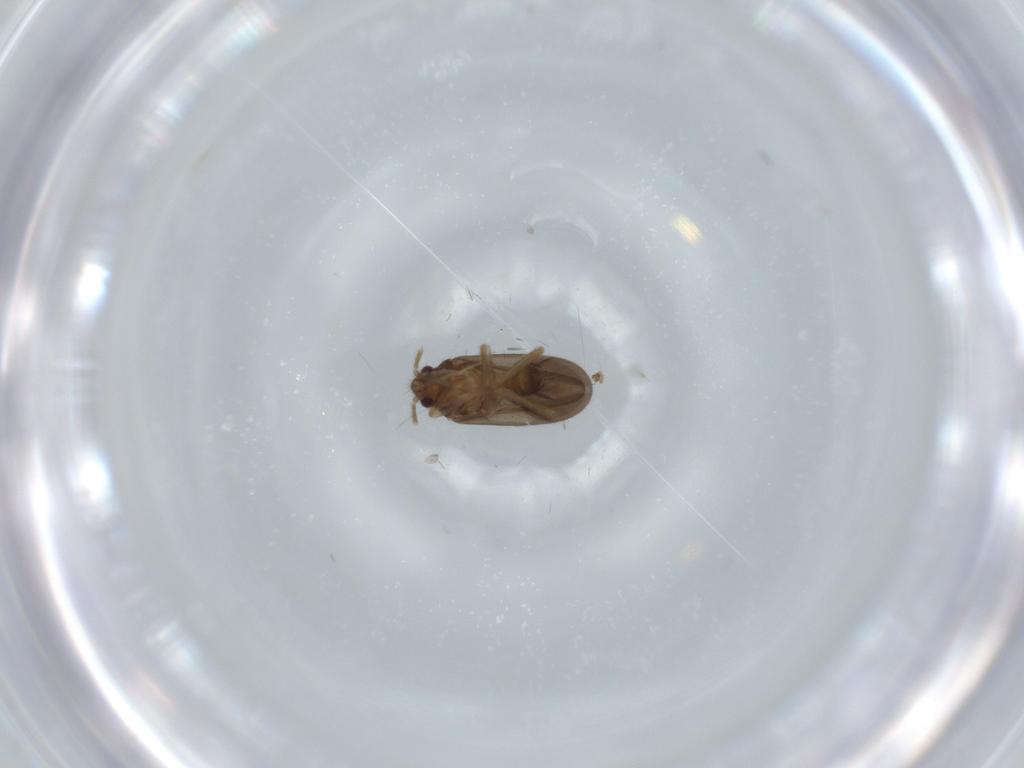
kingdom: Animalia
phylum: Arthropoda
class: Insecta
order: Hemiptera
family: Ceratocombidae
